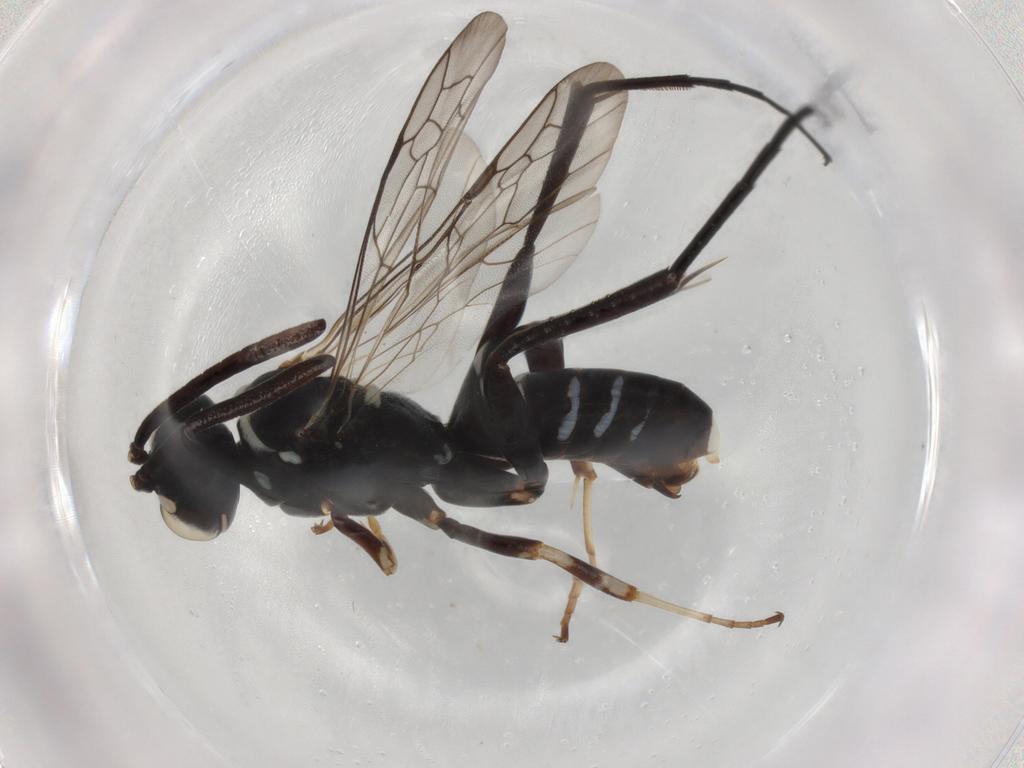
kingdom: Animalia
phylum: Arthropoda
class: Insecta
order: Hymenoptera
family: Formicidae
